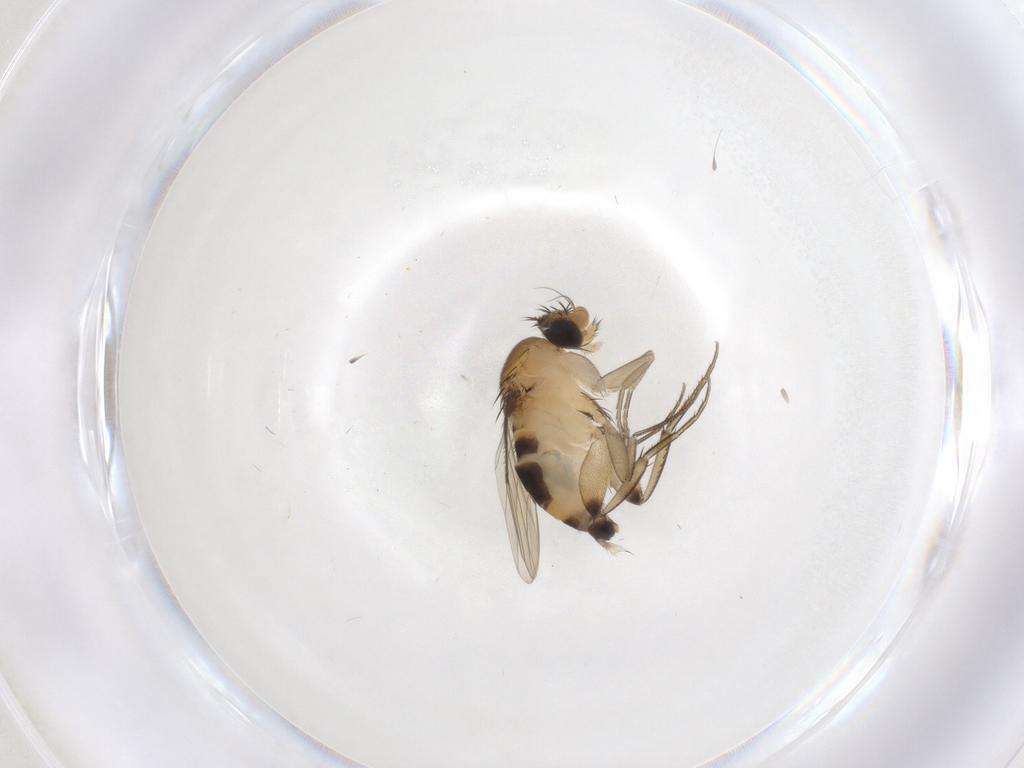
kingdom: Animalia
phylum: Arthropoda
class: Insecta
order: Diptera
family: Phoridae
